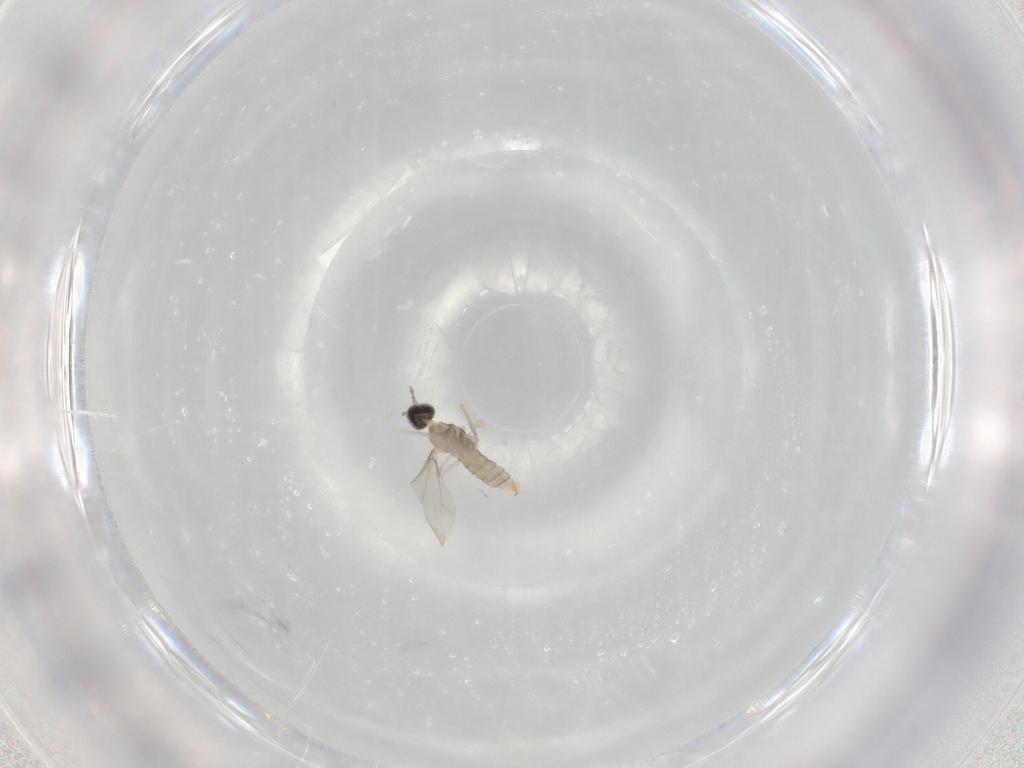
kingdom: Animalia
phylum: Arthropoda
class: Insecta
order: Diptera
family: Cecidomyiidae
